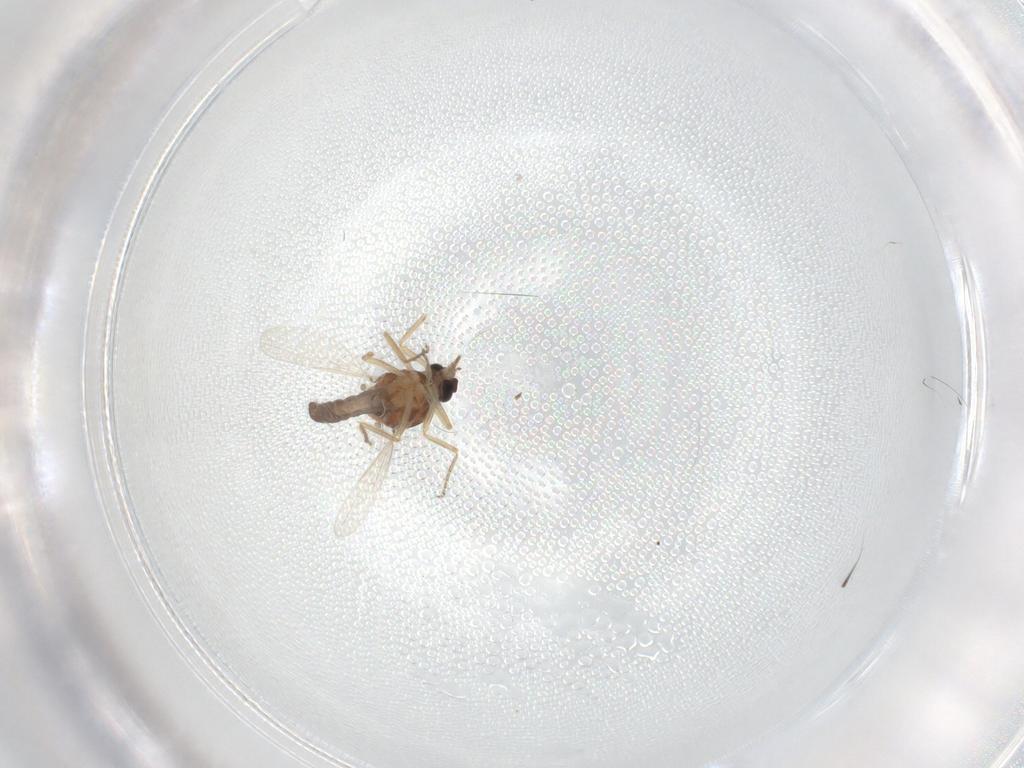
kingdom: Animalia
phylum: Arthropoda
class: Insecta
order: Diptera
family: Ceratopogonidae
